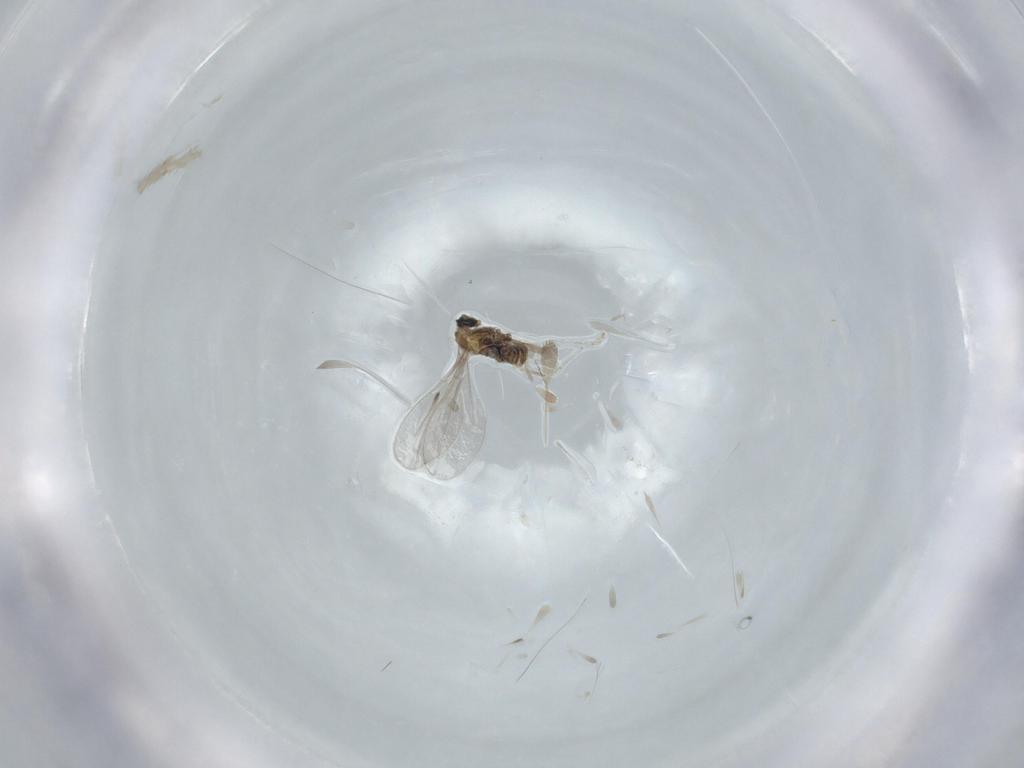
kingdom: Animalia
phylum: Arthropoda
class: Insecta
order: Diptera
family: Cecidomyiidae
